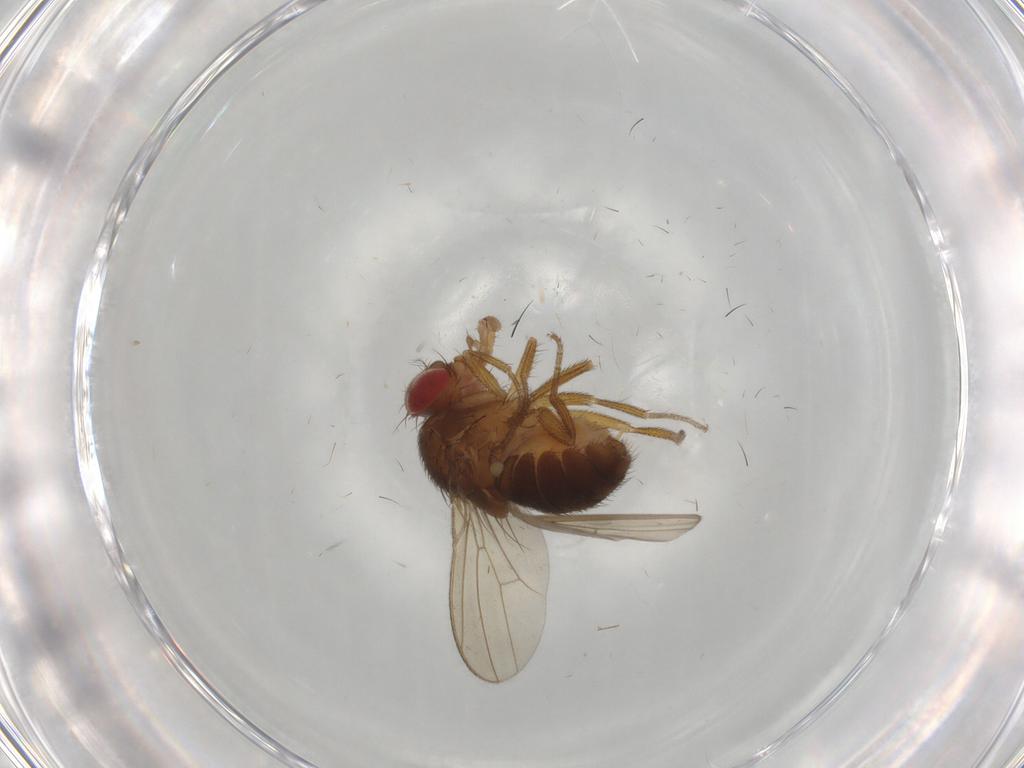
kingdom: Animalia
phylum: Arthropoda
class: Insecta
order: Diptera
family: Drosophilidae
